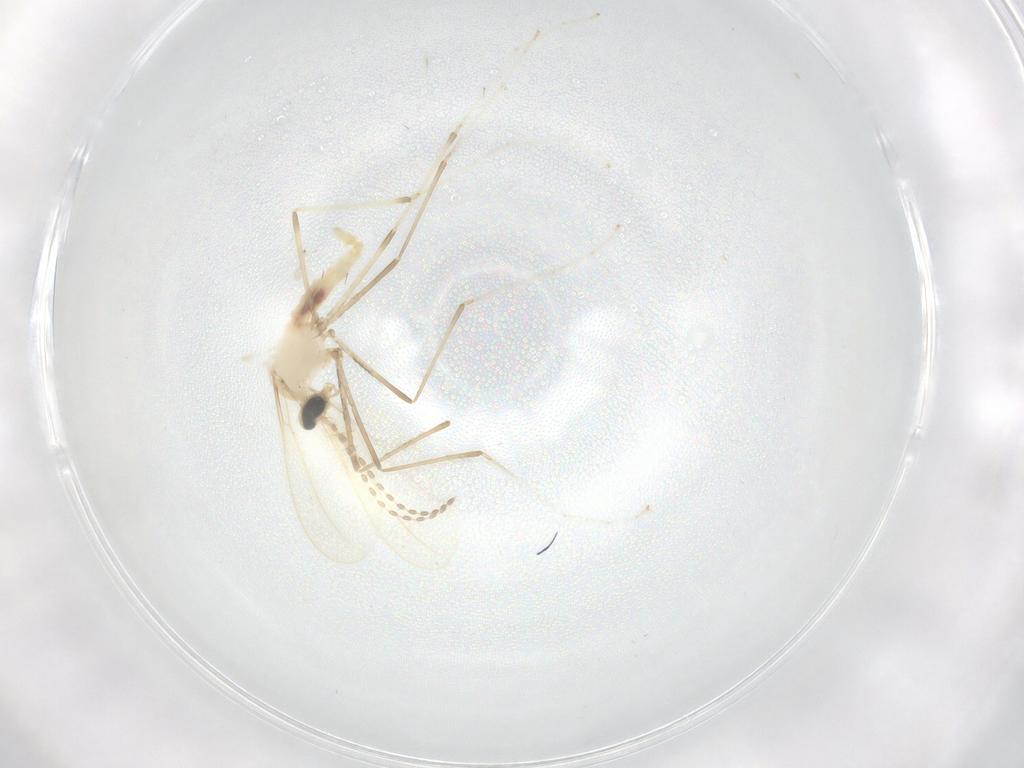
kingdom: Animalia
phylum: Arthropoda
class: Insecta
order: Diptera
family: Cecidomyiidae
